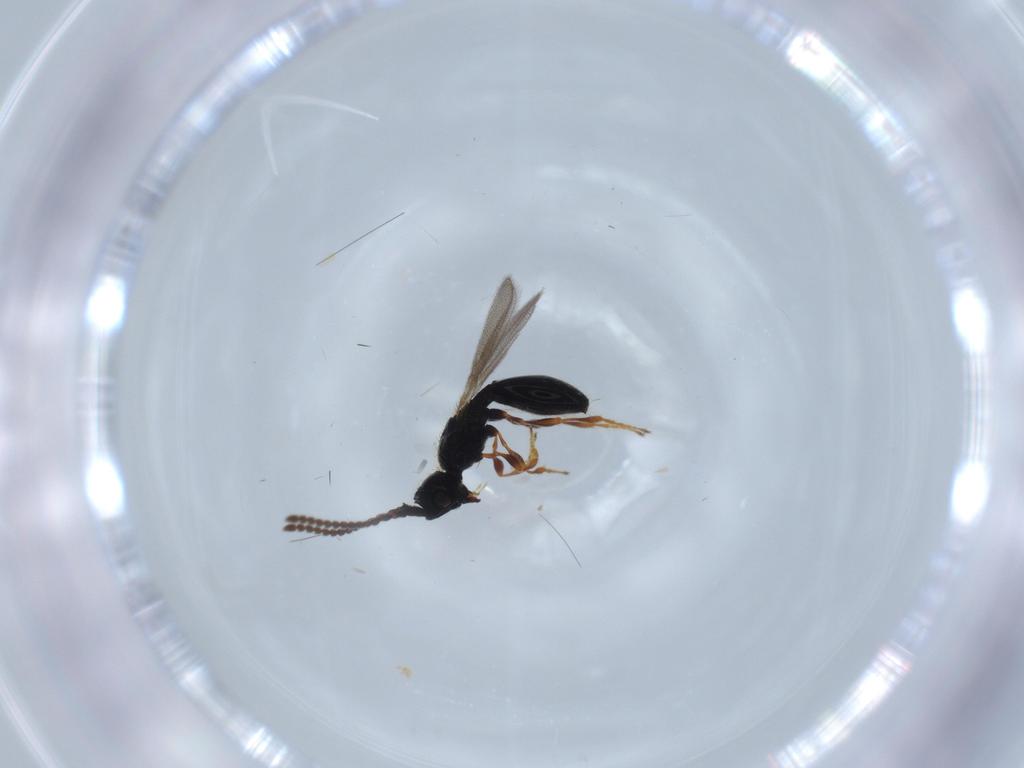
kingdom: Animalia
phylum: Arthropoda
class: Insecta
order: Hymenoptera
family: Diapriidae
